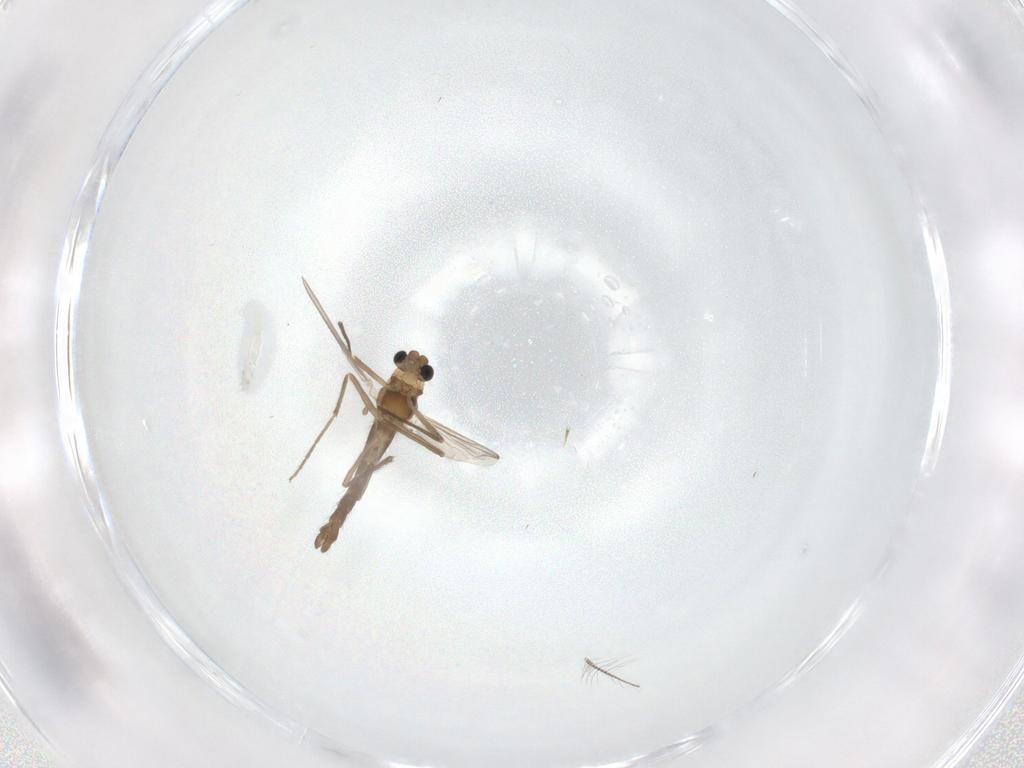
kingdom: Animalia
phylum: Arthropoda
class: Insecta
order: Diptera
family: Chironomidae
